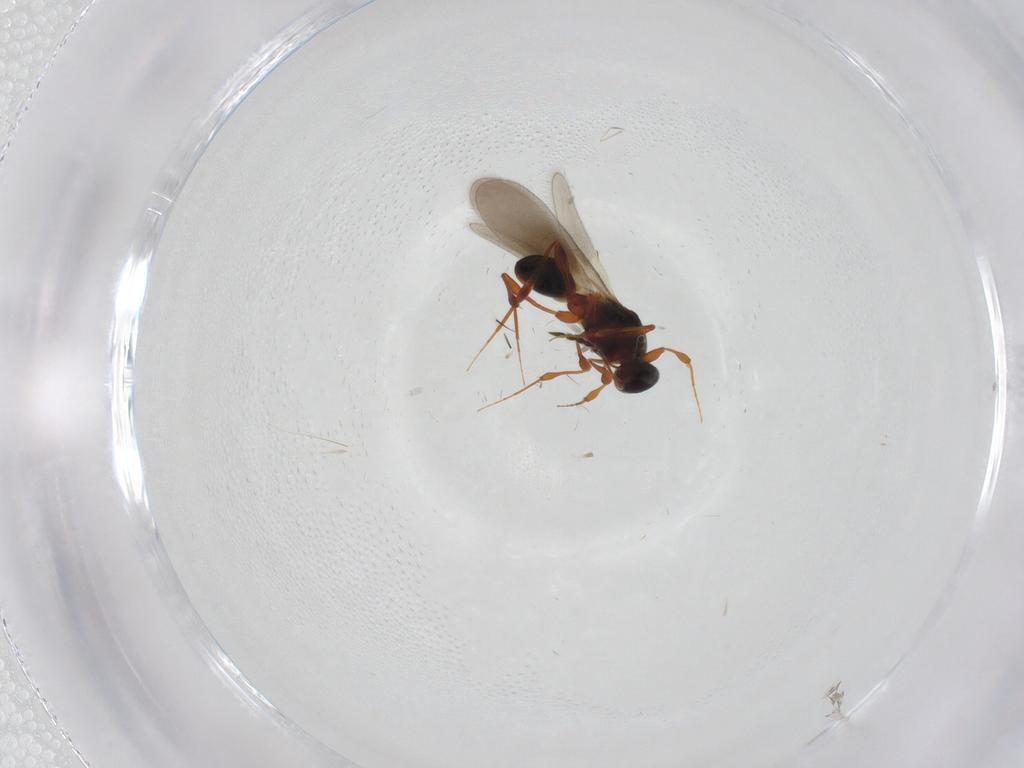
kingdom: Animalia
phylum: Arthropoda
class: Insecta
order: Hymenoptera
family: Platygastridae
